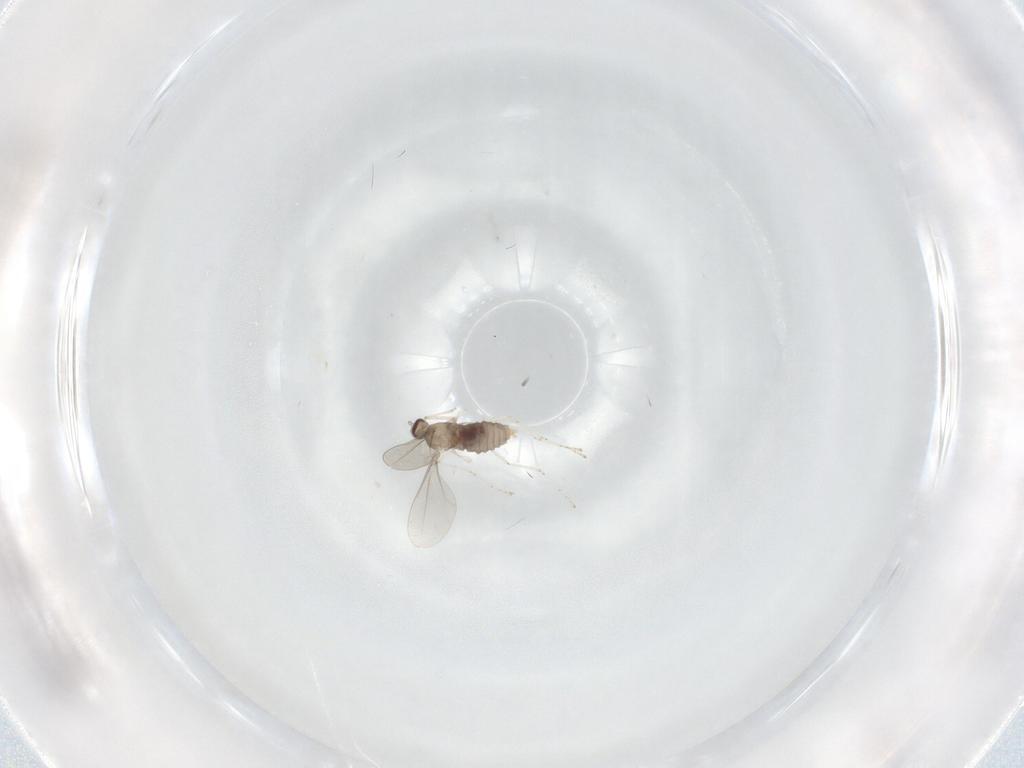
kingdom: Animalia
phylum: Arthropoda
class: Insecta
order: Diptera
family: Cecidomyiidae
